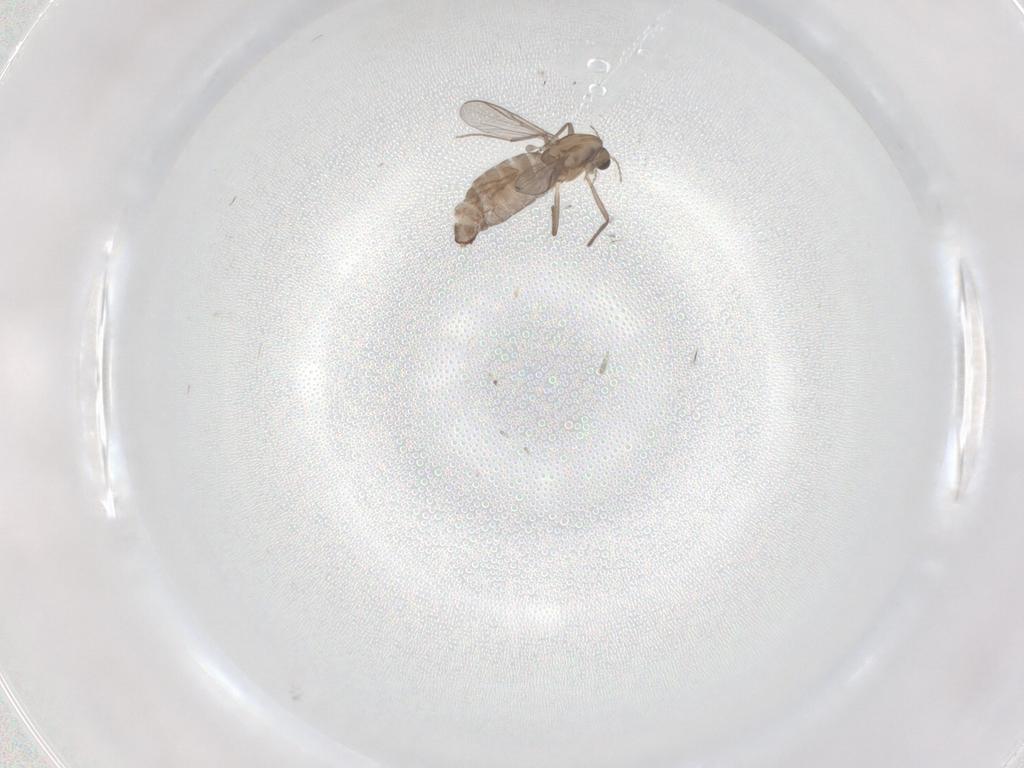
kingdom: Animalia
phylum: Arthropoda
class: Insecta
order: Diptera
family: Chironomidae
